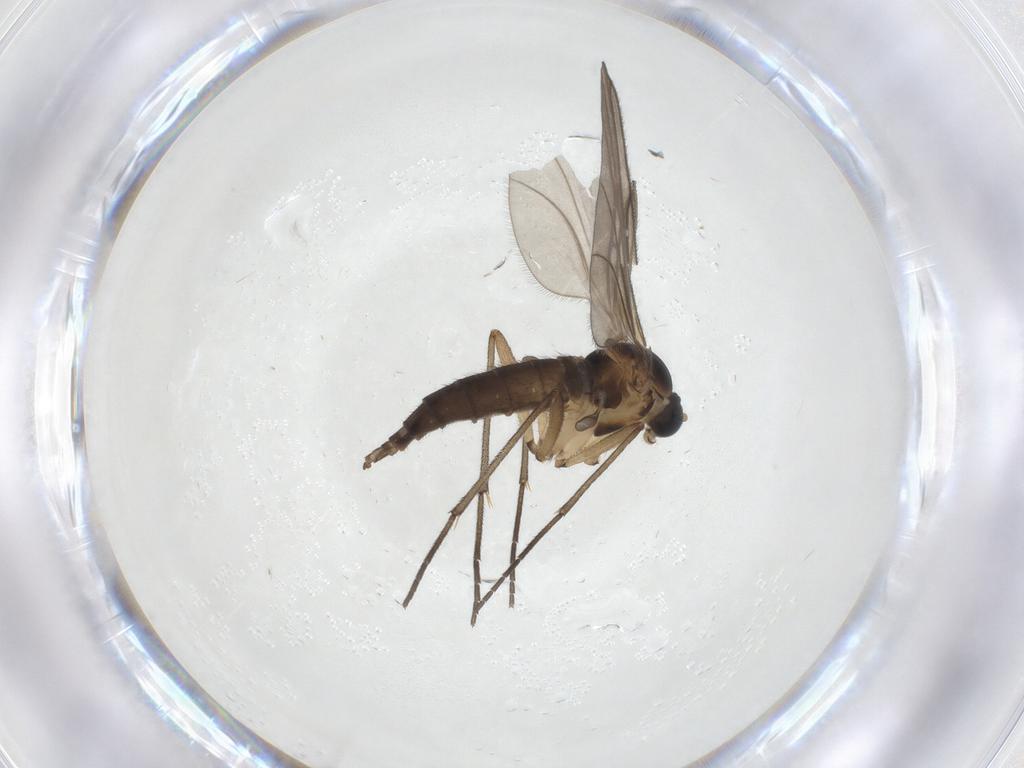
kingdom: Animalia
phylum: Arthropoda
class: Insecta
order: Diptera
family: Sciaridae
